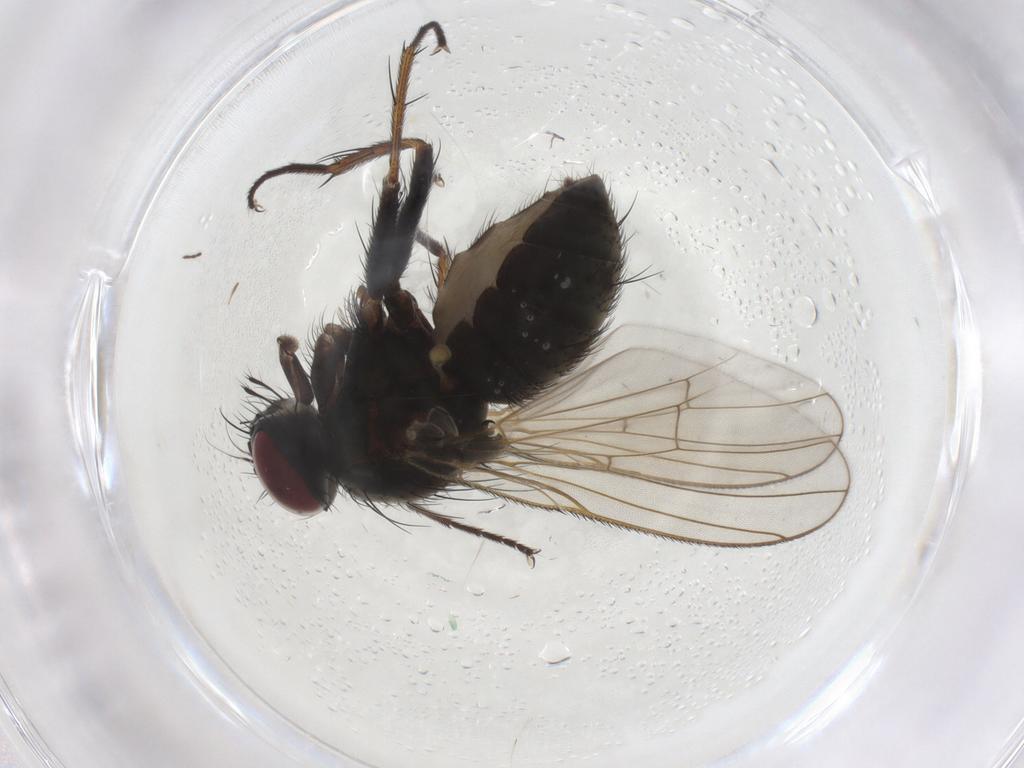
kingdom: Animalia
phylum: Arthropoda
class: Insecta
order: Diptera
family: Muscidae
